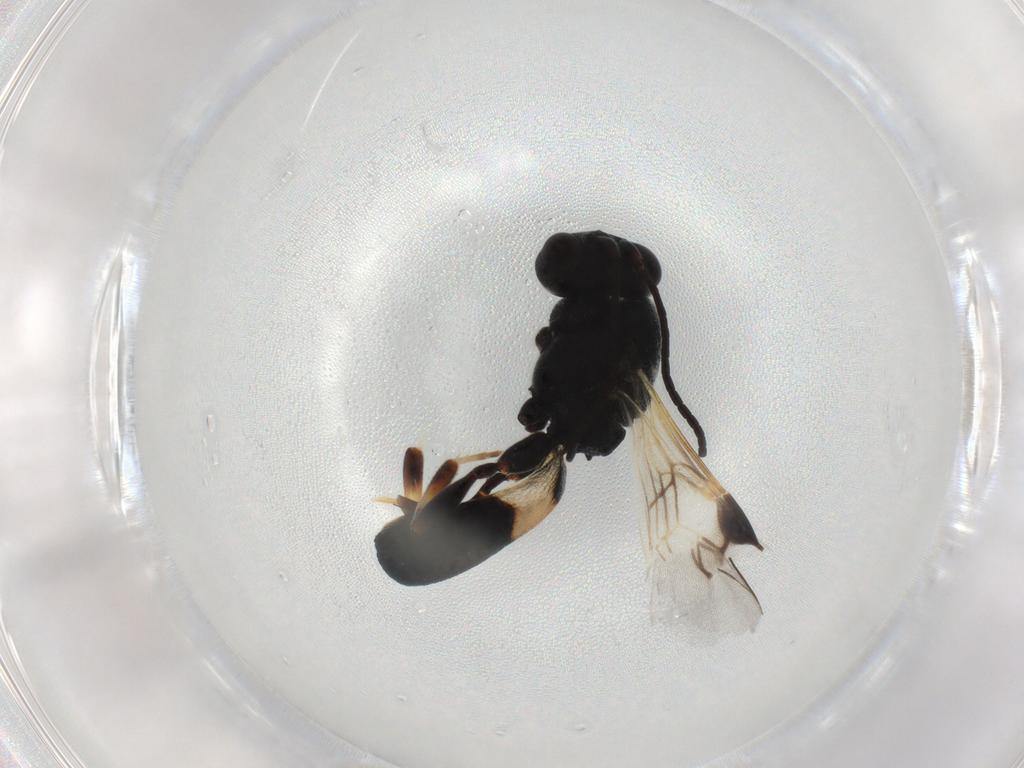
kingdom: Animalia
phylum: Arthropoda
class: Insecta
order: Hymenoptera
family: Braconidae
